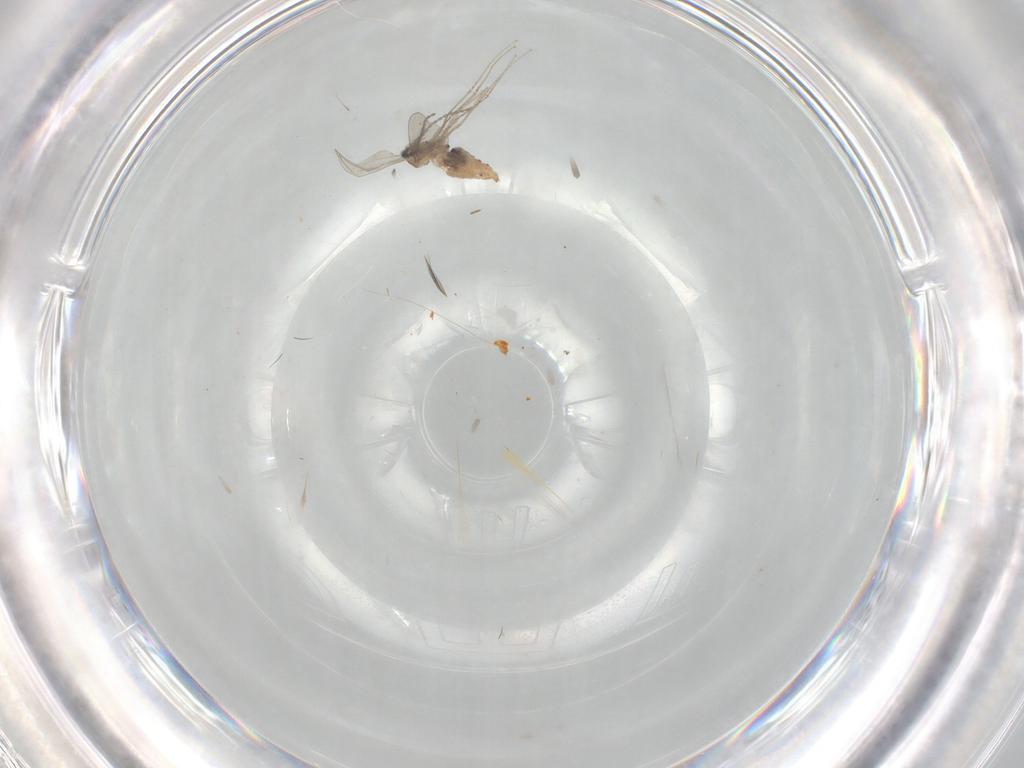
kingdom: Animalia
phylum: Arthropoda
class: Insecta
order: Diptera
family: Cecidomyiidae
